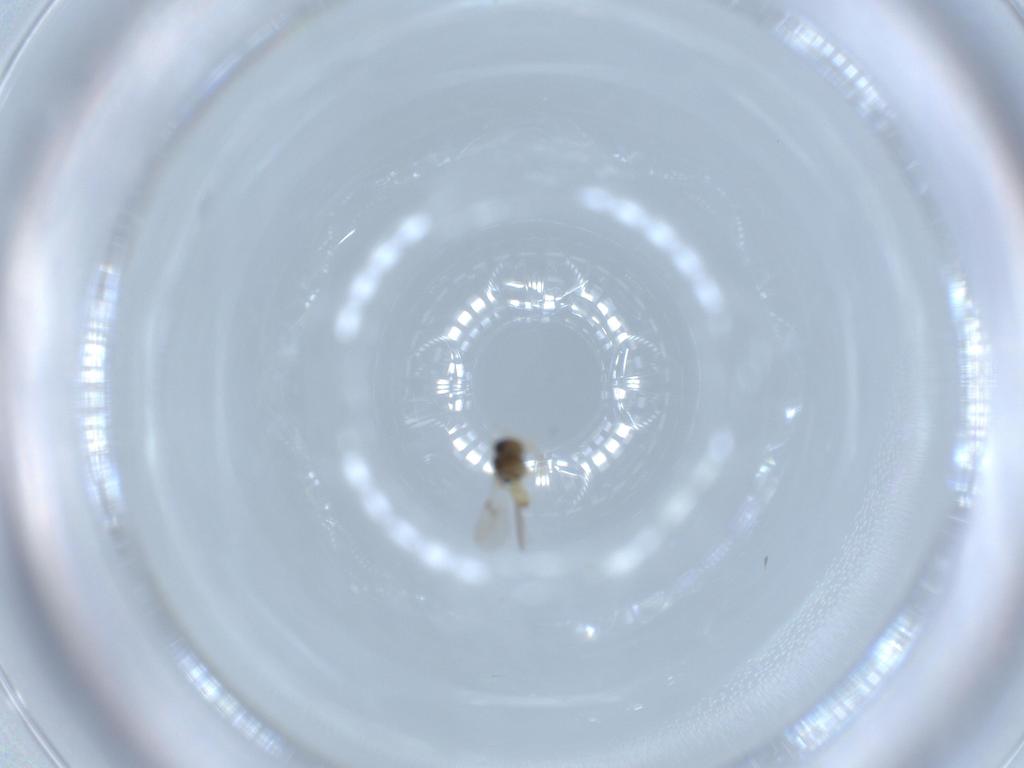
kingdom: Animalia
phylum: Arthropoda
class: Insecta
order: Hymenoptera
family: Scelionidae
